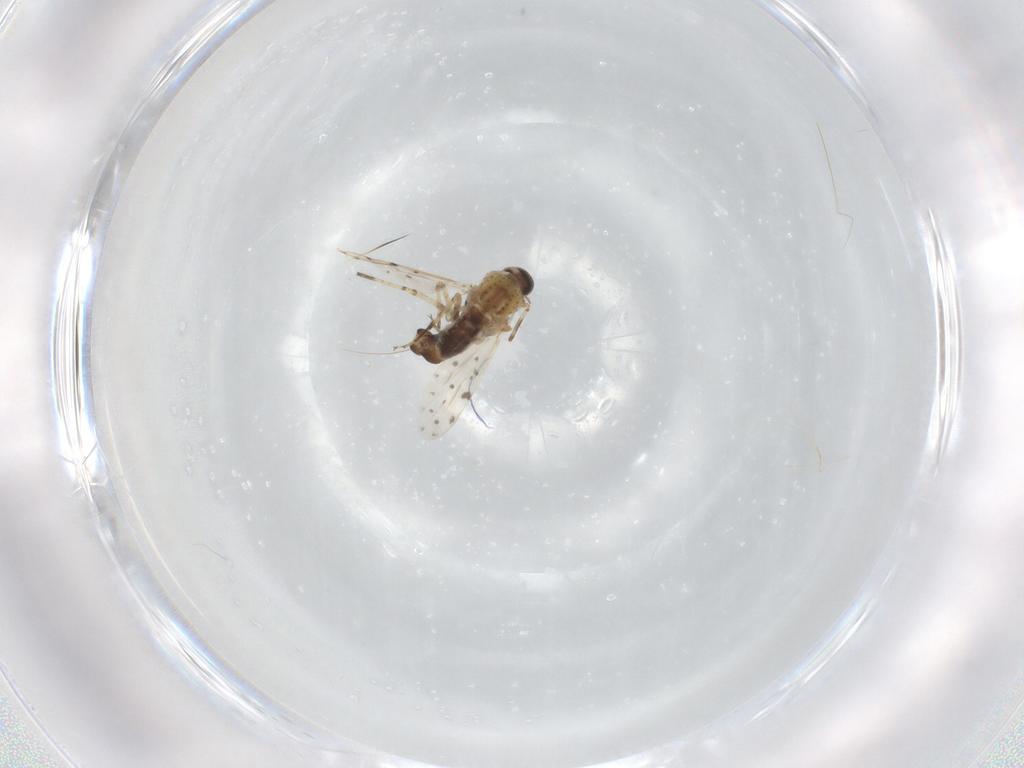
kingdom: Animalia
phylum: Arthropoda
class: Insecta
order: Diptera
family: Ceratopogonidae
